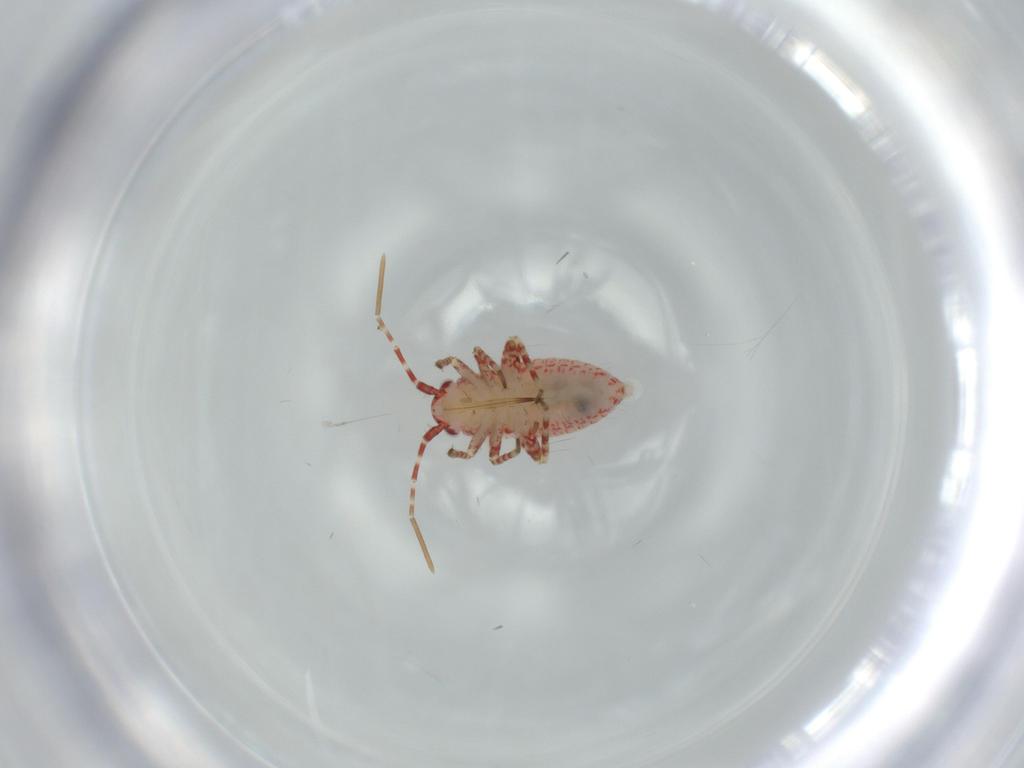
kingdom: Animalia
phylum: Arthropoda
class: Insecta
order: Hemiptera
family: Miridae
